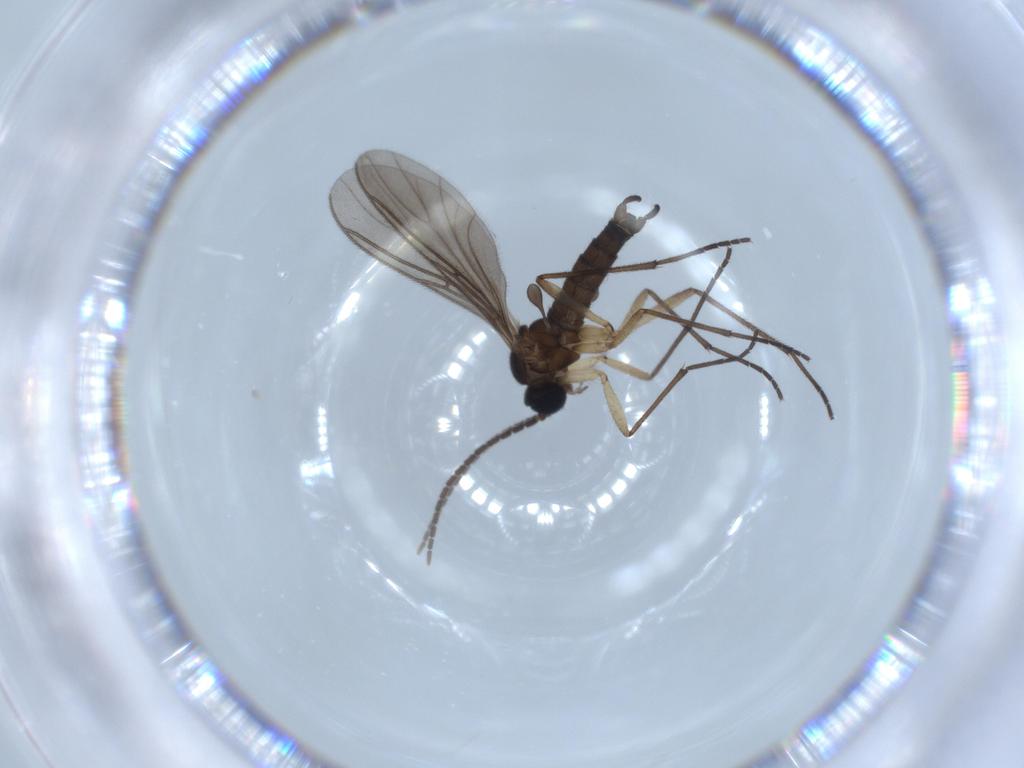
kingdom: Animalia
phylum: Arthropoda
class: Insecta
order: Diptera
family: Sciaridae
